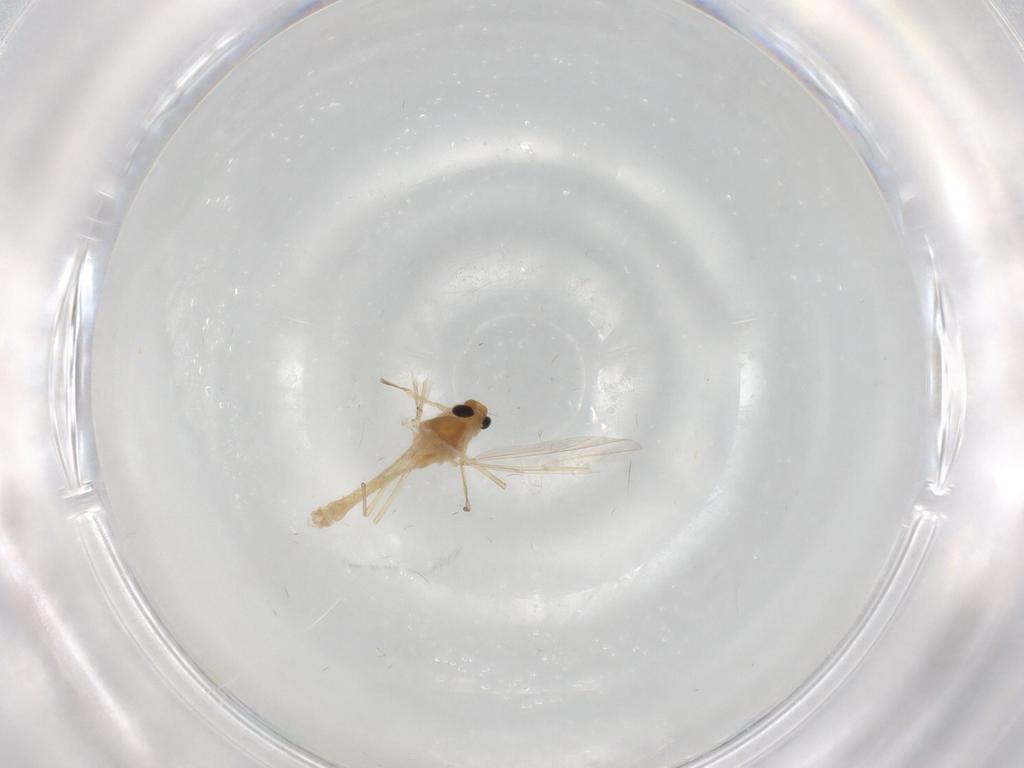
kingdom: Animalia
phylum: Arthropoda
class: Insecta
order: Diptera
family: Chironomidae
